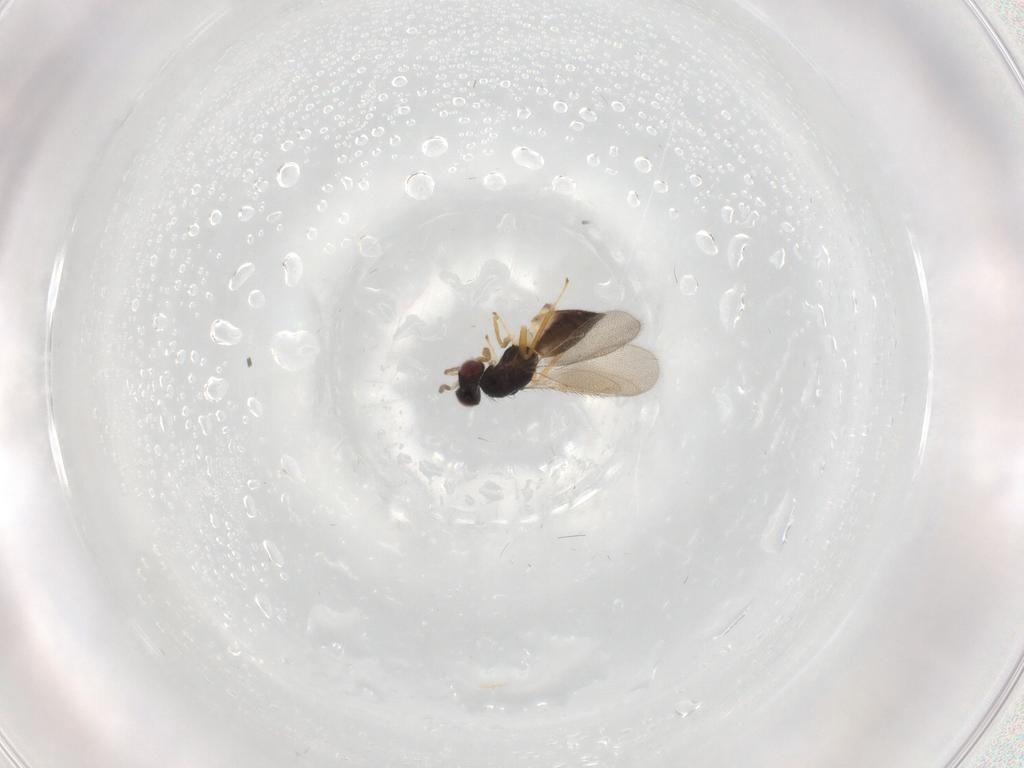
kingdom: Animalia
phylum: Arthropoda
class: Insecta
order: Hymenoptera
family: Eulophidae
